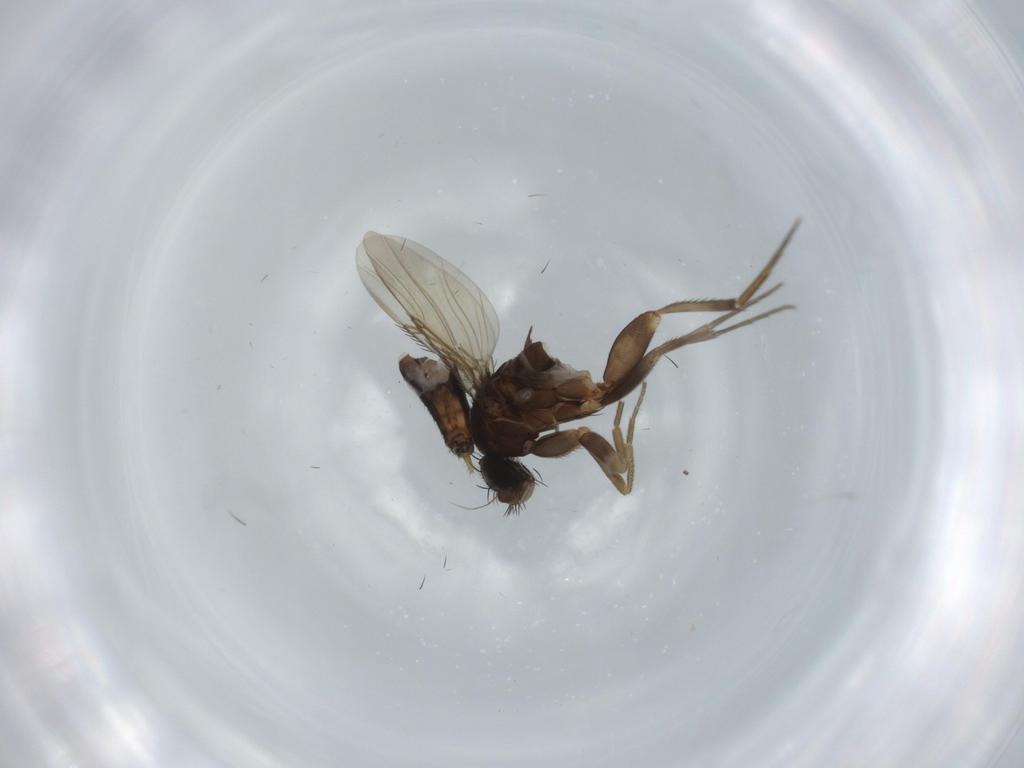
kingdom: Animalia
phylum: Arthropoda
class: Insecta
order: Diptera
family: Phoridae
